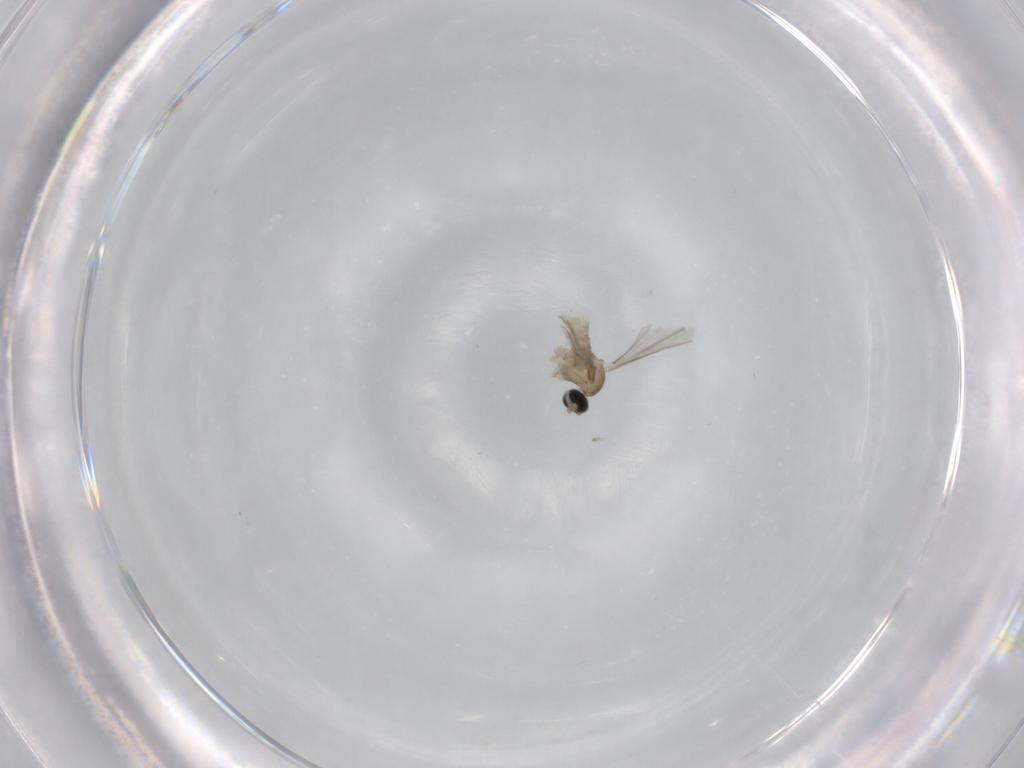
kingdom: Animalia
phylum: Arthropoda
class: Insecta
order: Diptera
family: Cecidomyiidae
